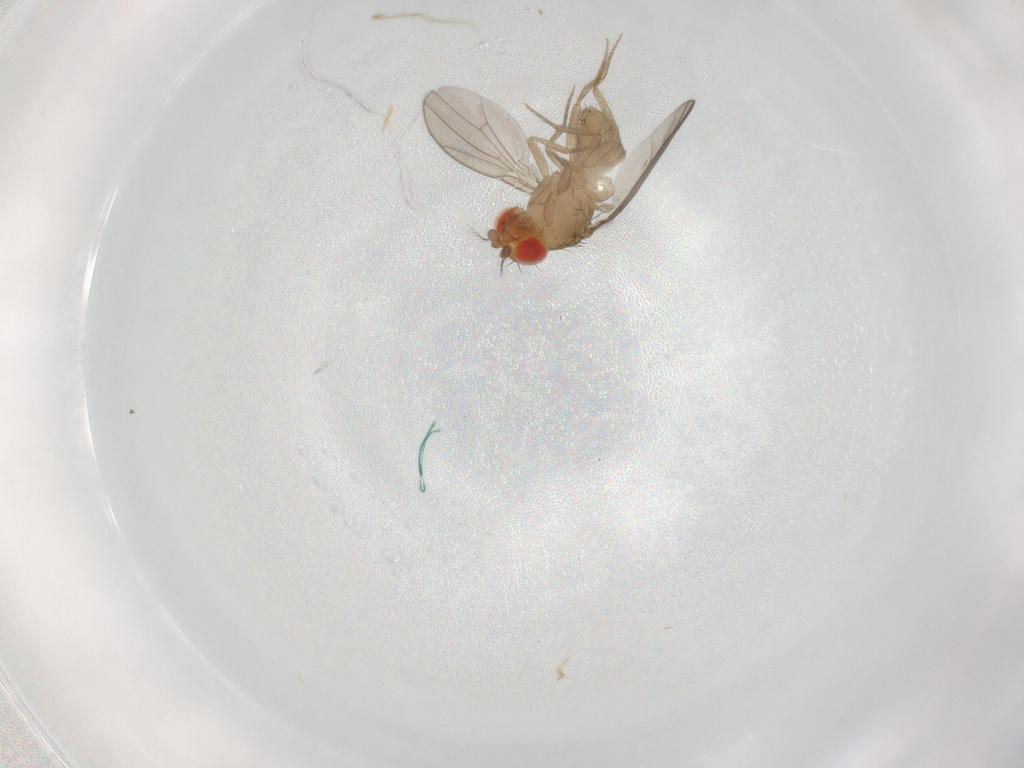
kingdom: Animalia
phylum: Arthropoda
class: Insecta
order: Diptera
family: Drosophilidae
